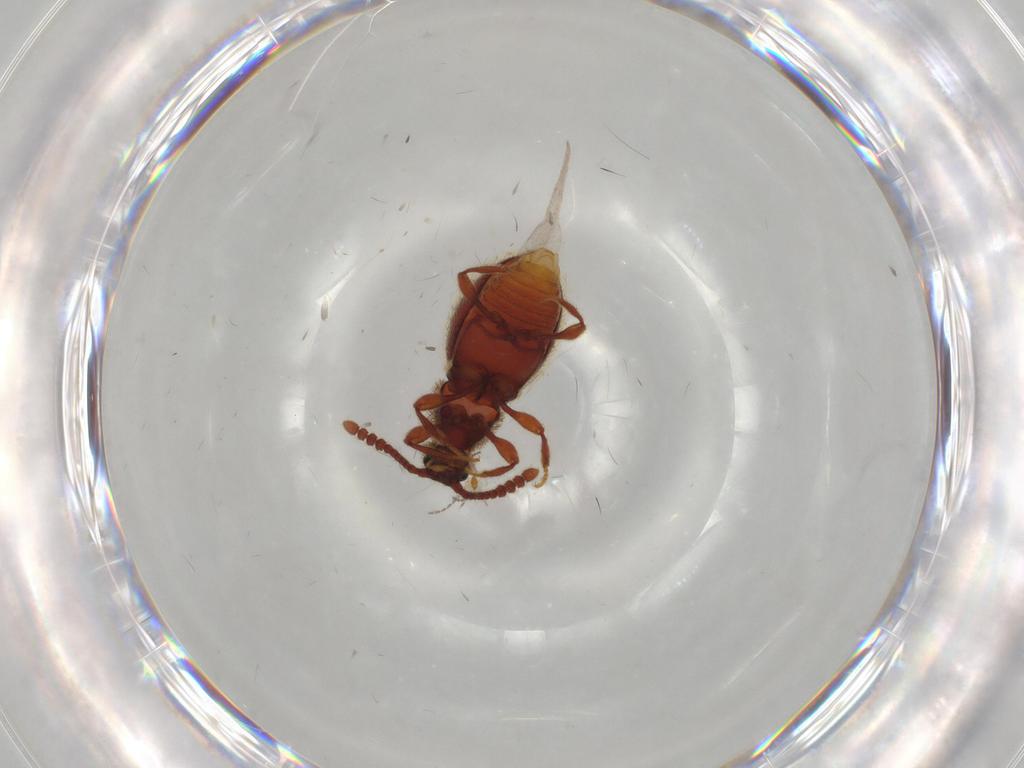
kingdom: Animalia
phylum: Arthropoda
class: Insecta
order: Coleoptera
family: Staphylinidae
